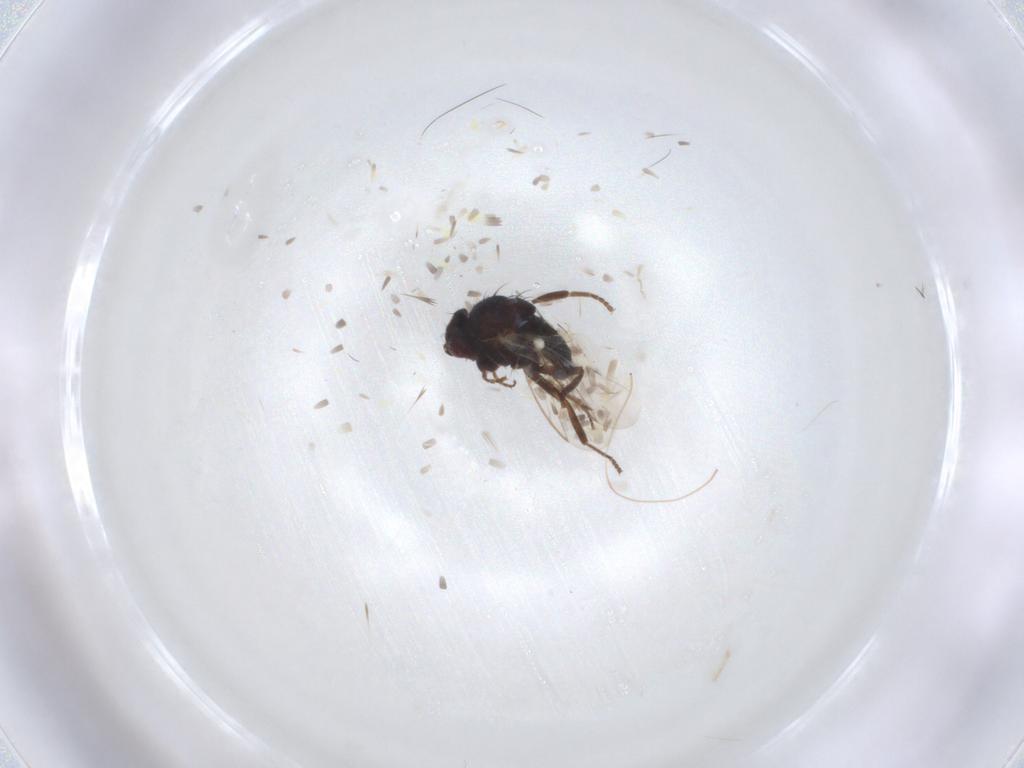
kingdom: Animalia
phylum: Arthropoda
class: Insecta
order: Diptera
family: Agromyzidae
